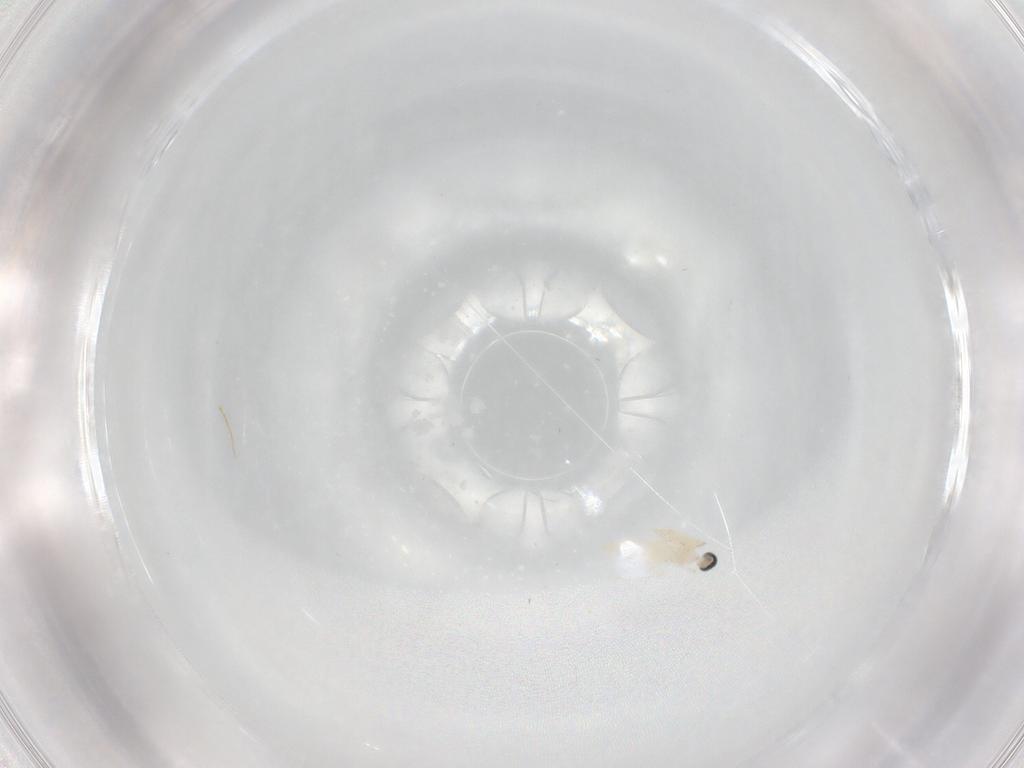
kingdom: Animalia
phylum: Arthropoda
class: Insecta
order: Diptera
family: Cecidomyiidae
